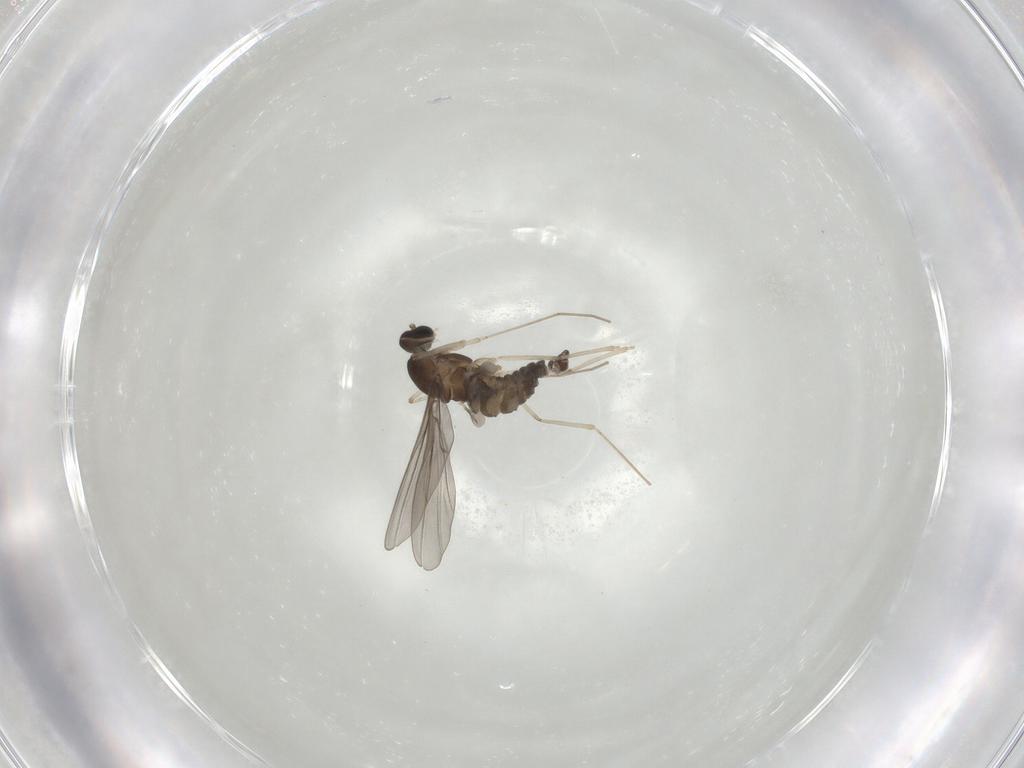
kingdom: Animalia
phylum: Arthropoda
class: Insecta
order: Diptera
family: Cecidomyiidae
